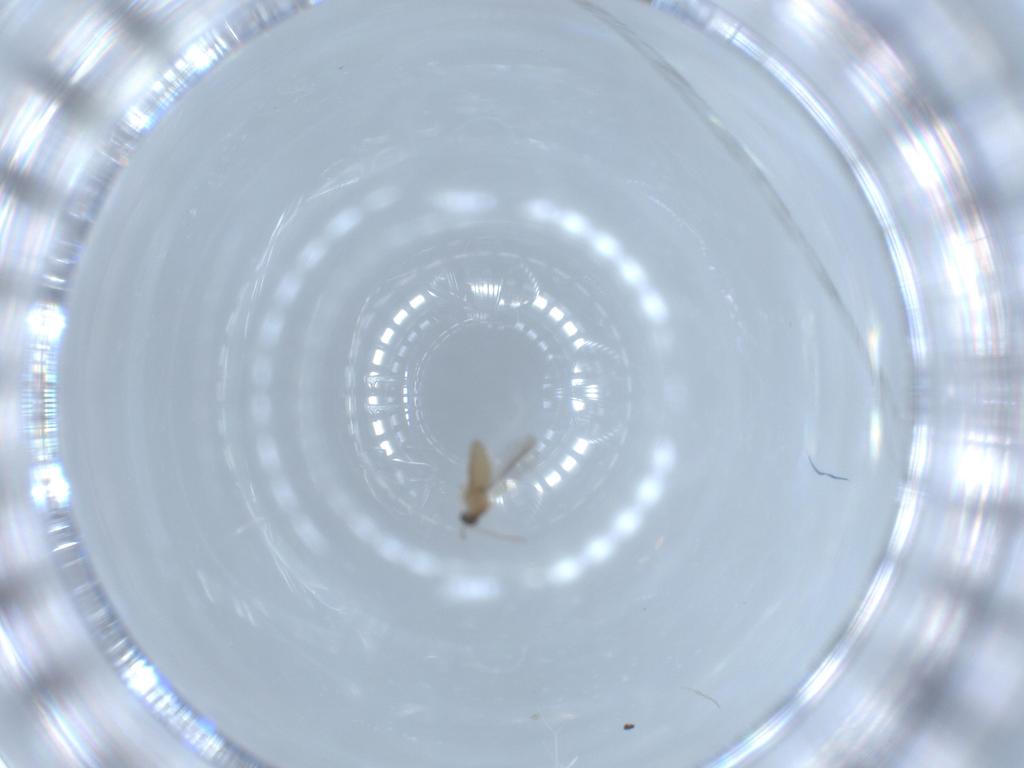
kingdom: Animalia
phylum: Arthropoda
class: Insecta
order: Diptera
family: Cecidomyiidae
